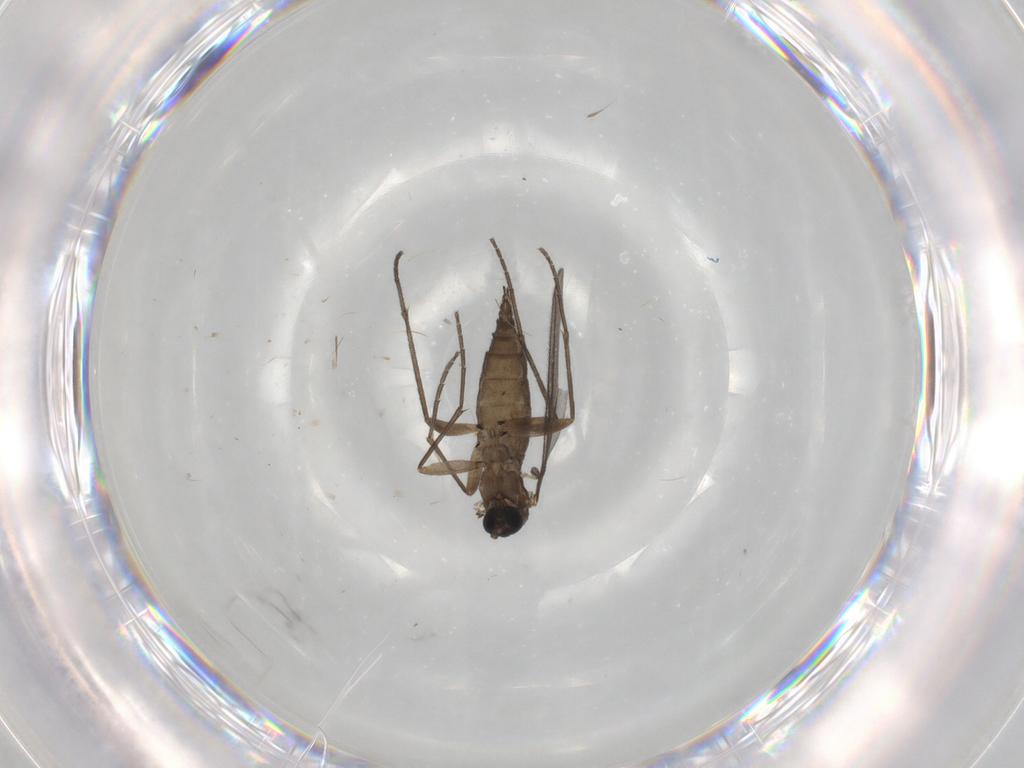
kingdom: Animalia
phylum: Arthropoda
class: Insecta
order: Diptera
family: Sciaridae
